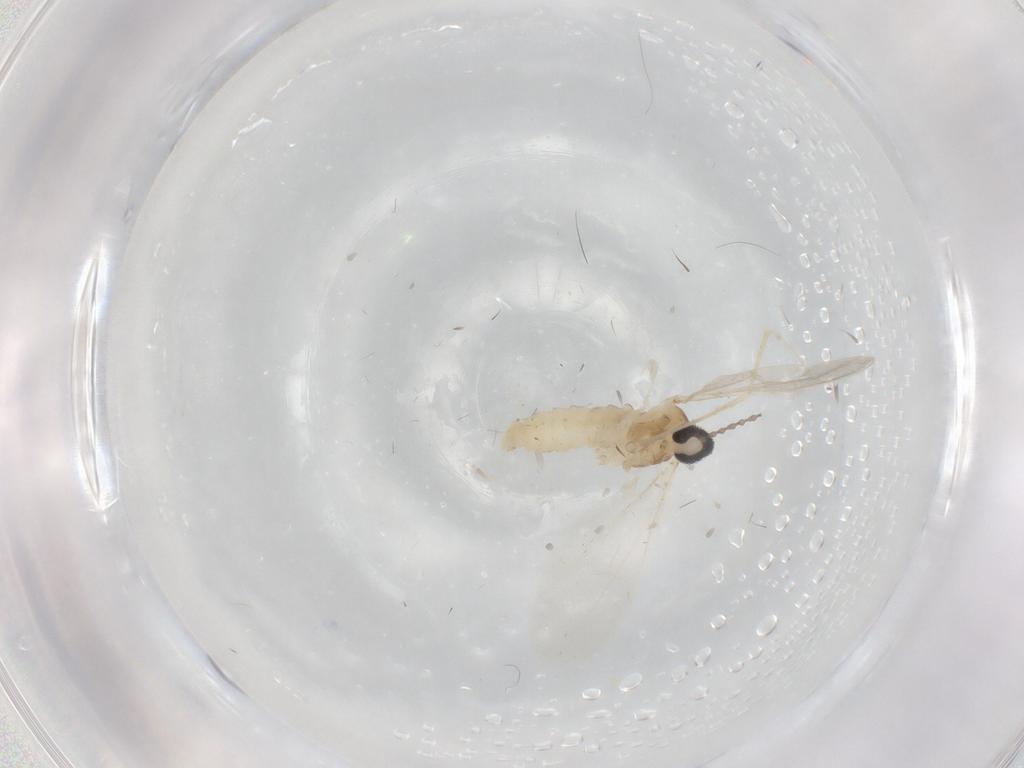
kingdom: Animalia
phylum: Arthropoda
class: Insecta
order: Diptera
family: Cecidomyiidae
